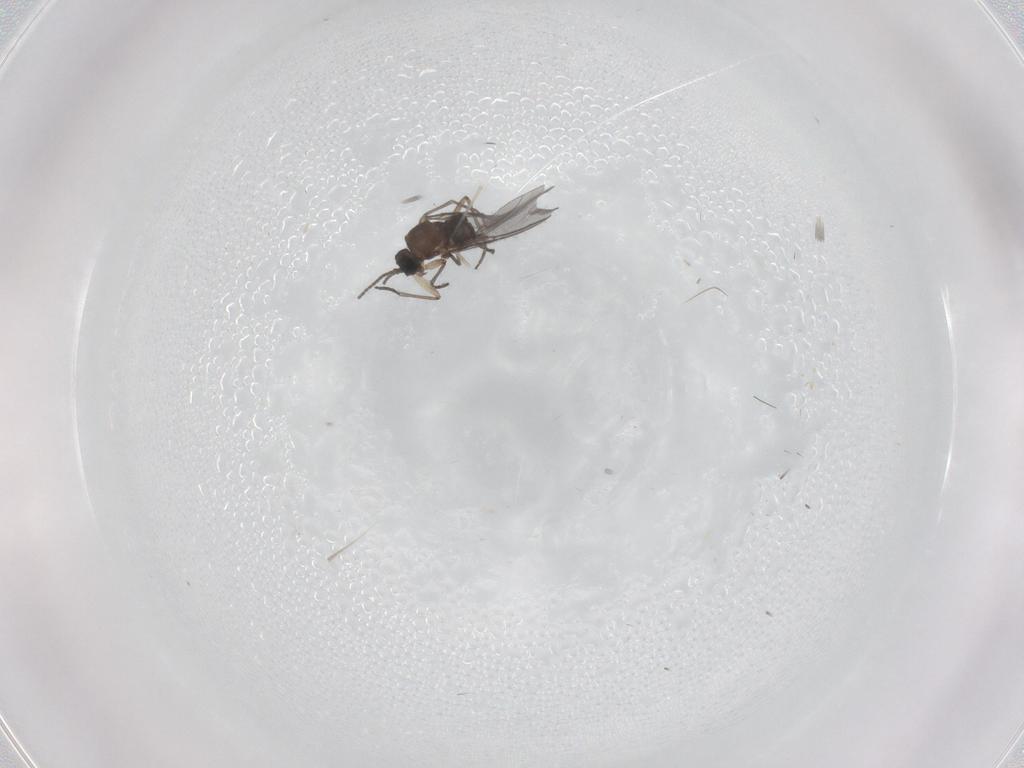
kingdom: Animalia
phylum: Arthropoda
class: Insecta
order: Diptera
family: Sciaridae
